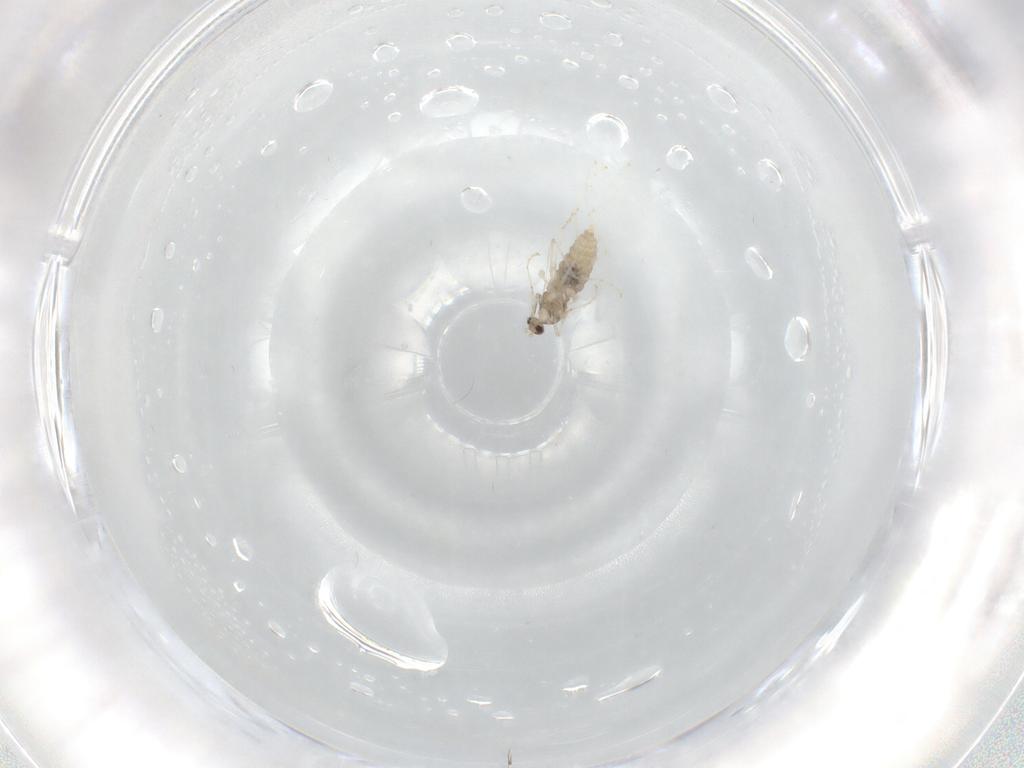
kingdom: Animalia
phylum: Arthropoda
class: Insecta
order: Diptera
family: Cecidomyiidae
